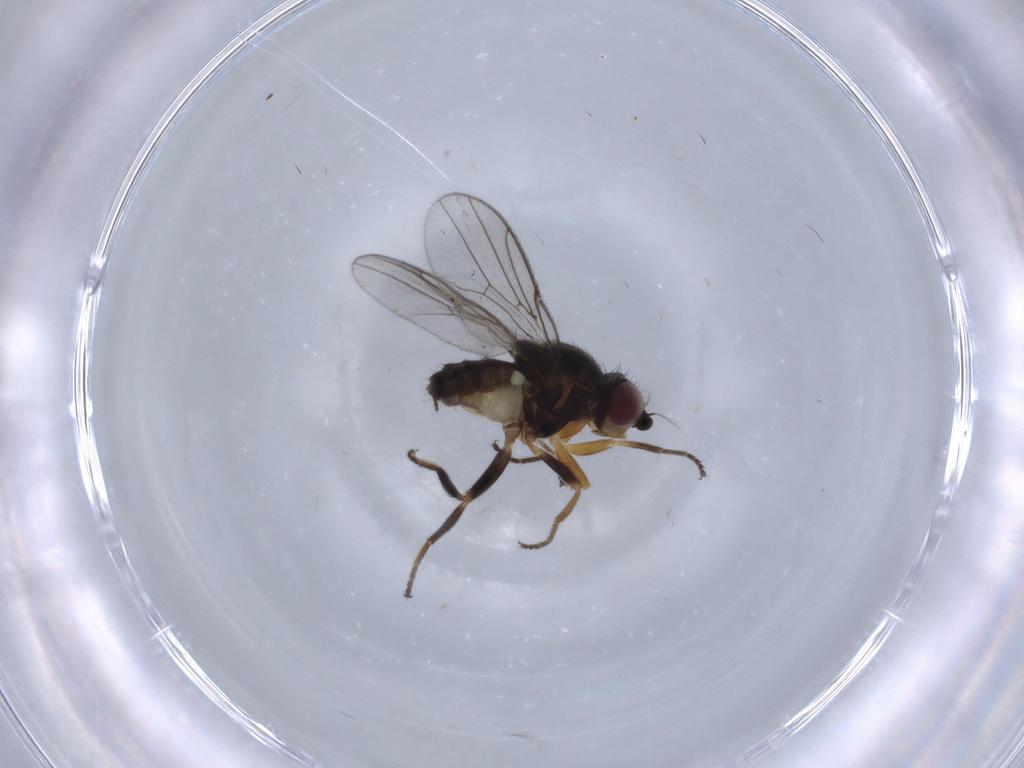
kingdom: Animalia
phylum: Arthropoda
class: Insecta
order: Diptera
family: Chloropidae
